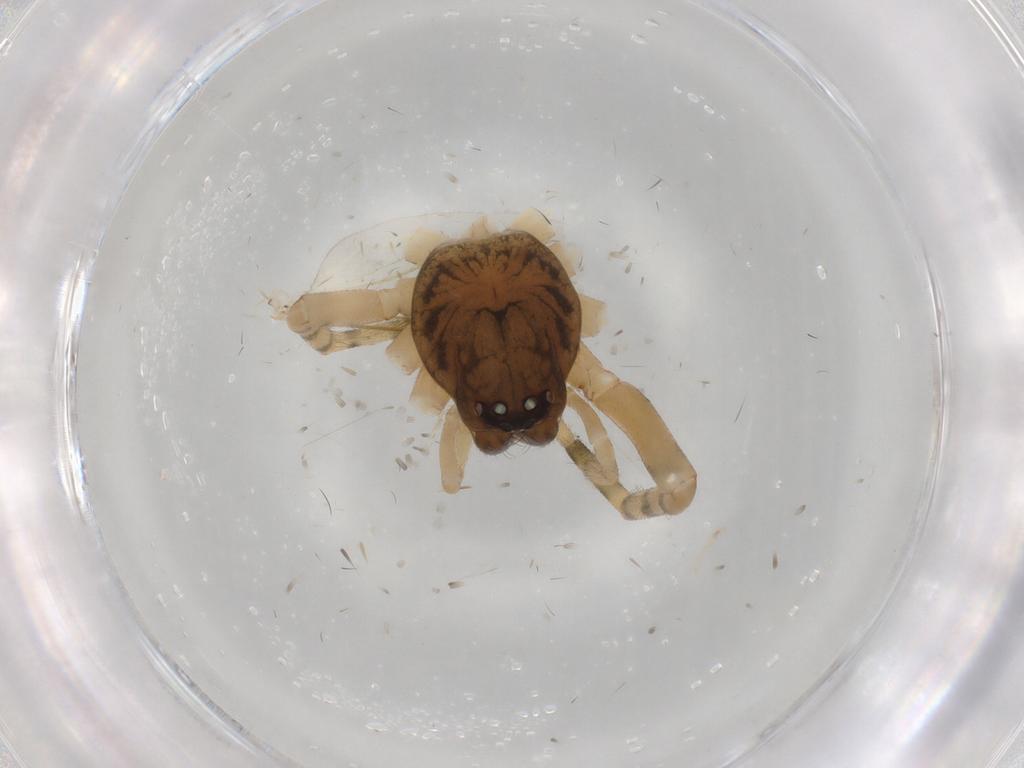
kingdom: Animalia
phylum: Arthropoda
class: Arachnida
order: Araneae
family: Trachelidae
